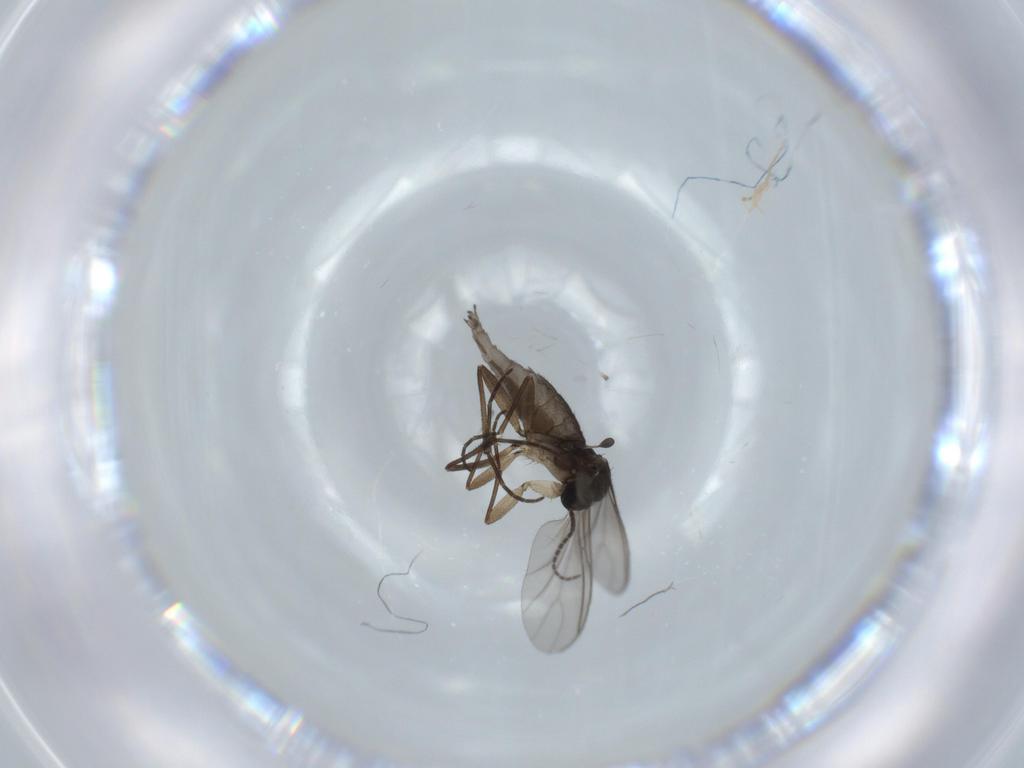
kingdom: Animalia
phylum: Arthropoda
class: Insecta
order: Diptera
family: Sciaridae
